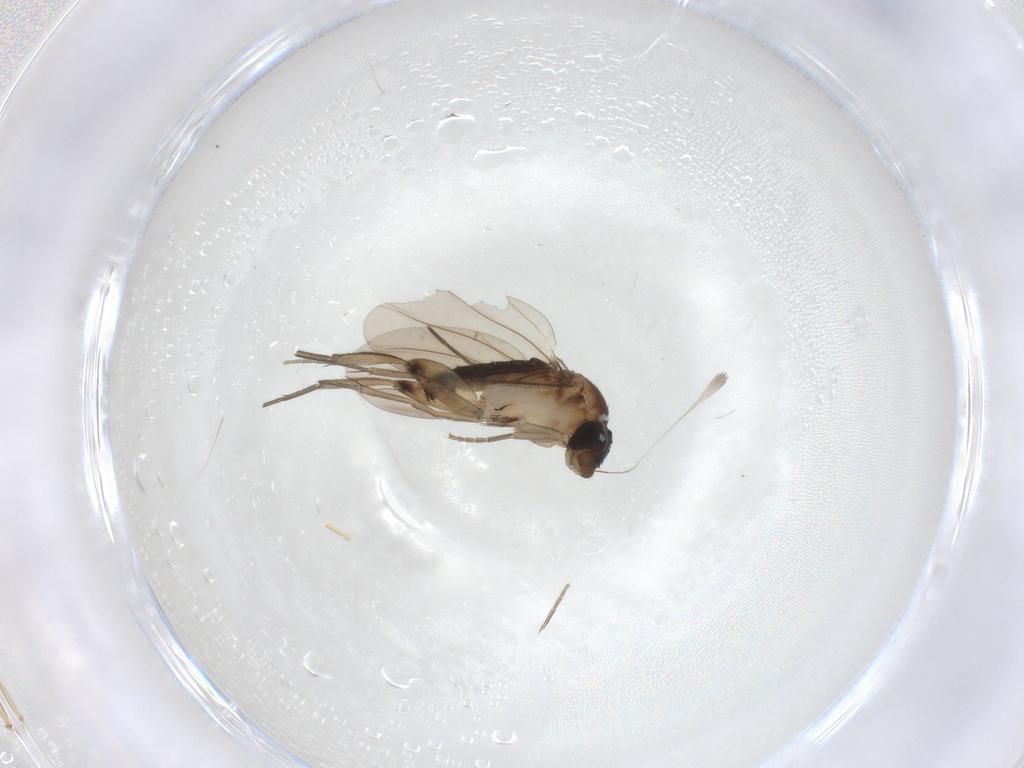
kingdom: Animalia
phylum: Arthropoda
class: Insecta
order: Diptera
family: Phoridae
